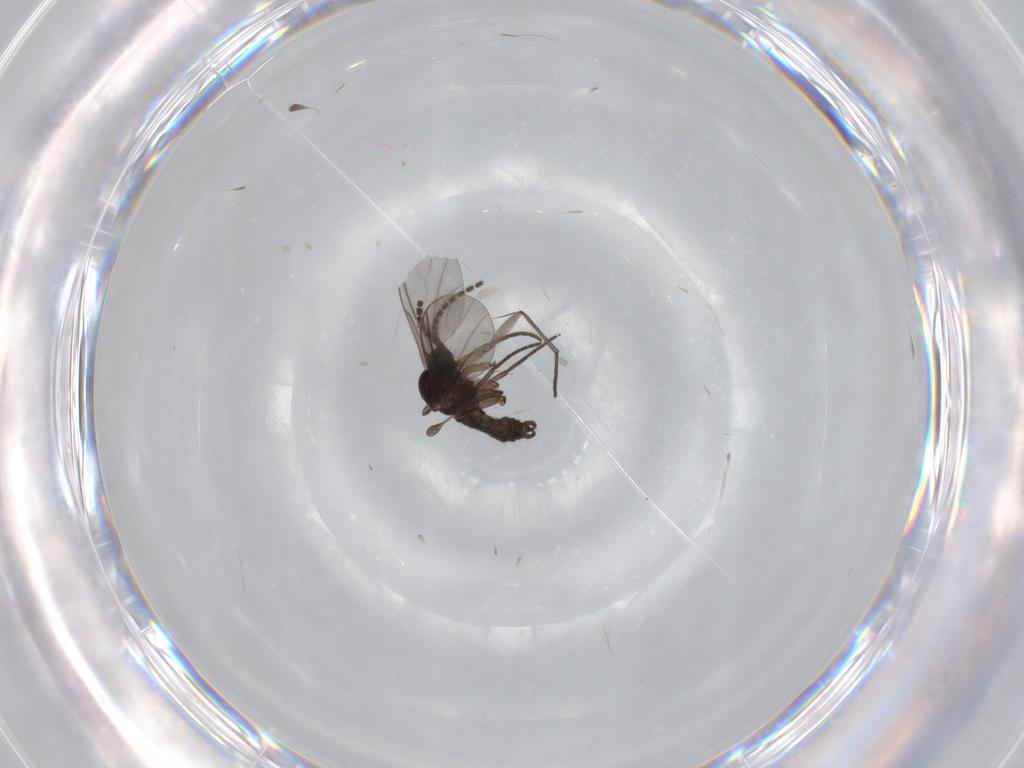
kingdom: Animalia
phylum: Arthropoda
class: Insecta
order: Diptera
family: Sciaridae
